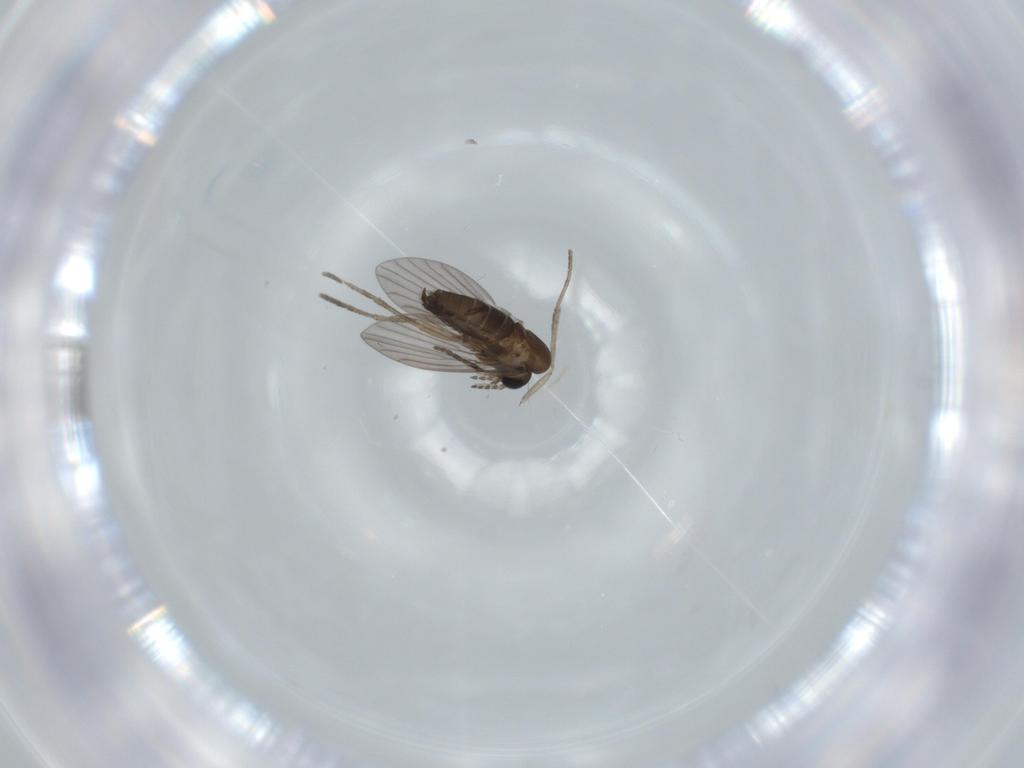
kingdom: Animalia
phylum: Arthropoda
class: Insecta
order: Diptera
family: Psychodidae
